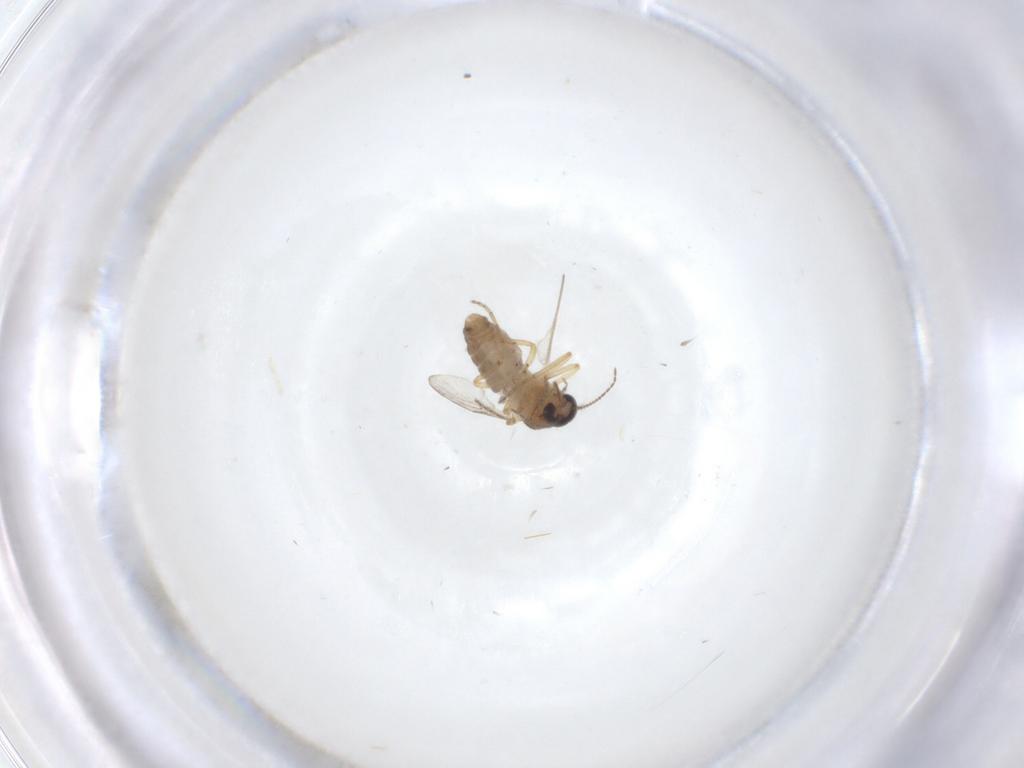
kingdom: Animalia
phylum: Arthropoda
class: Insecta
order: Diptera
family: Ceratopogonidae
